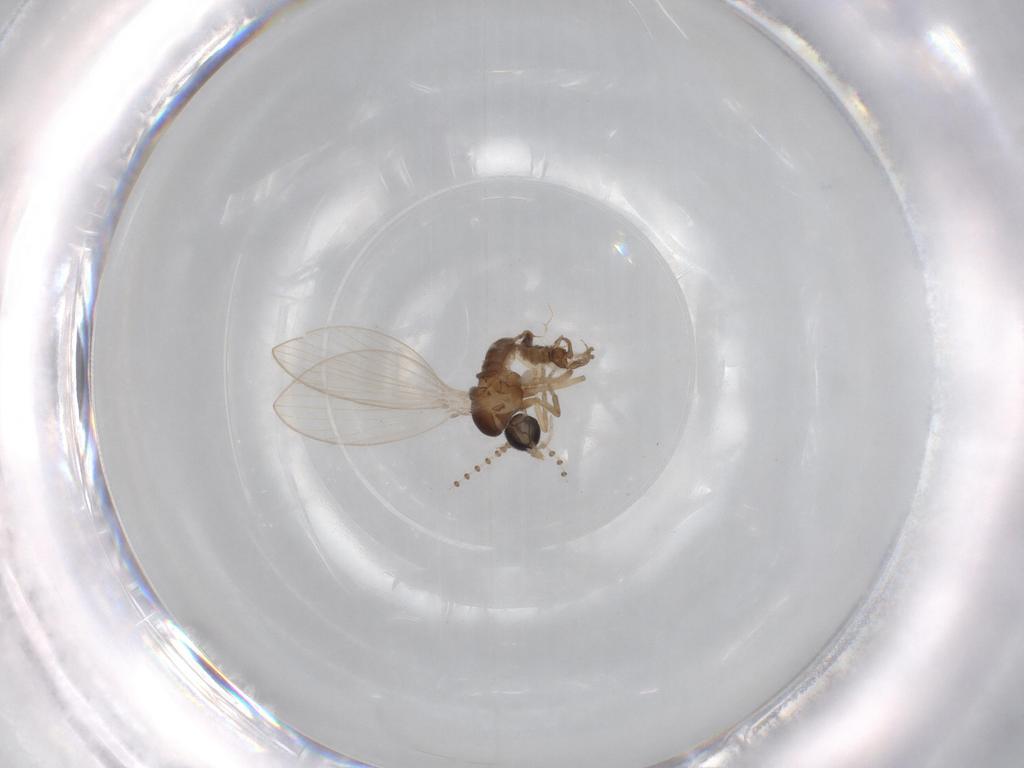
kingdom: Animalia
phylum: Arthropoda
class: Insecta
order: Diptera
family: Psychodidae
